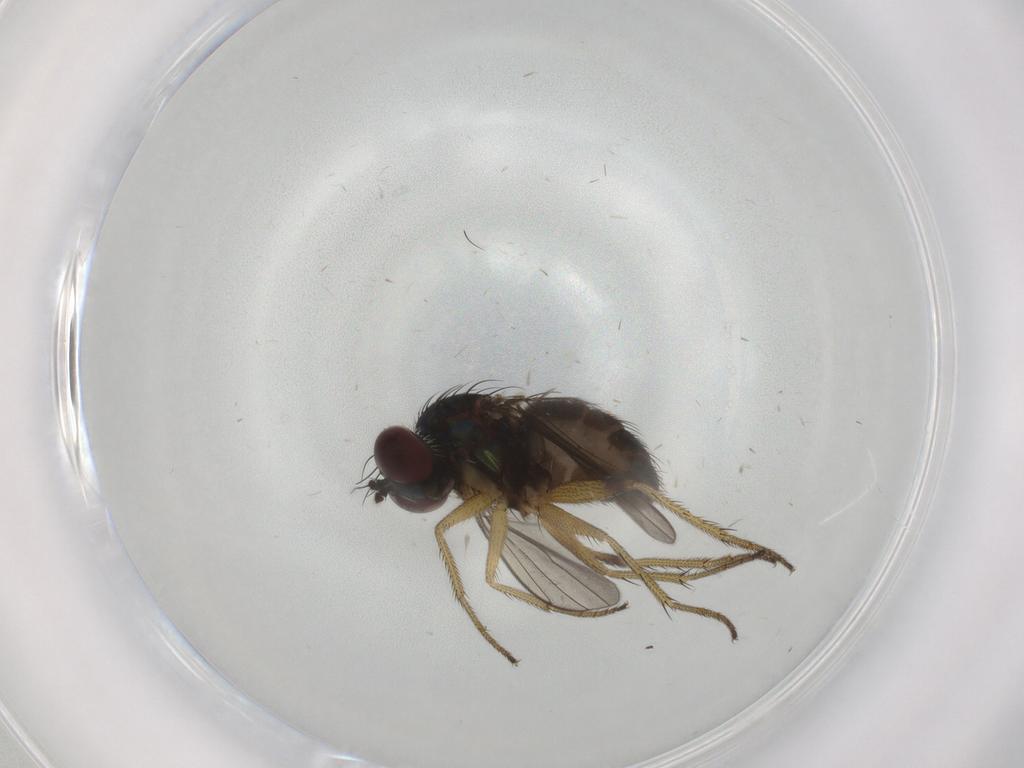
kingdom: Animalia
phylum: Arthropoda
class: Insecta
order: Diptera
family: Dolichopodidae
